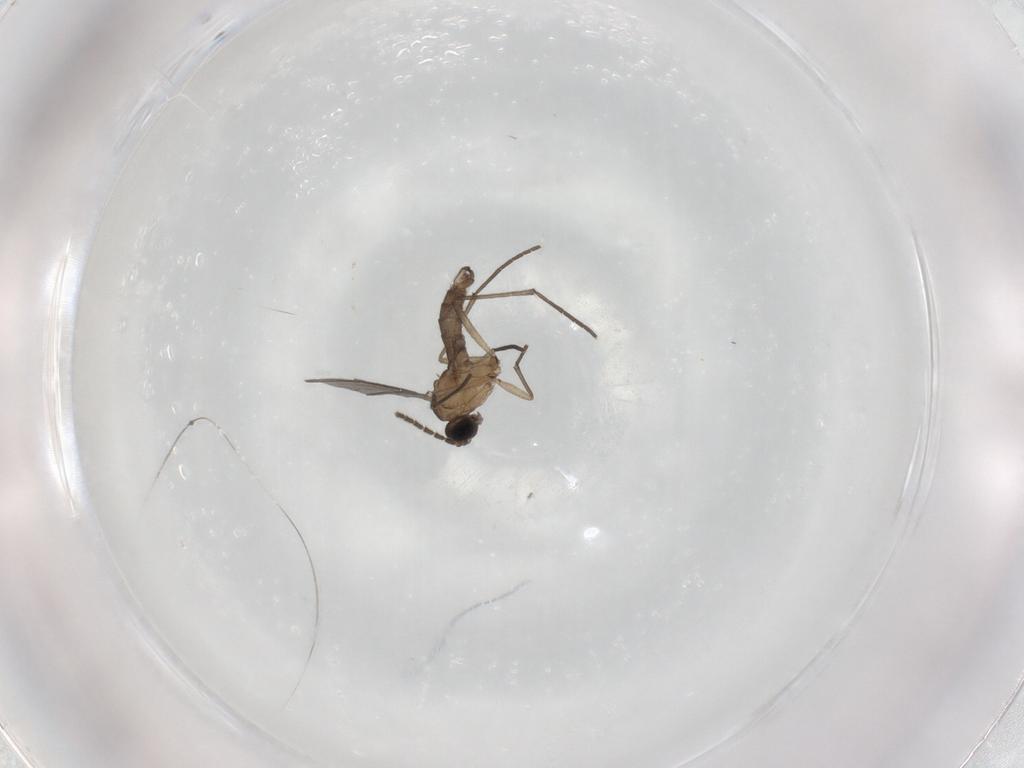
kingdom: Animalia
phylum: Arthropoda
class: Insecta
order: Diptera
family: Sciaridae
